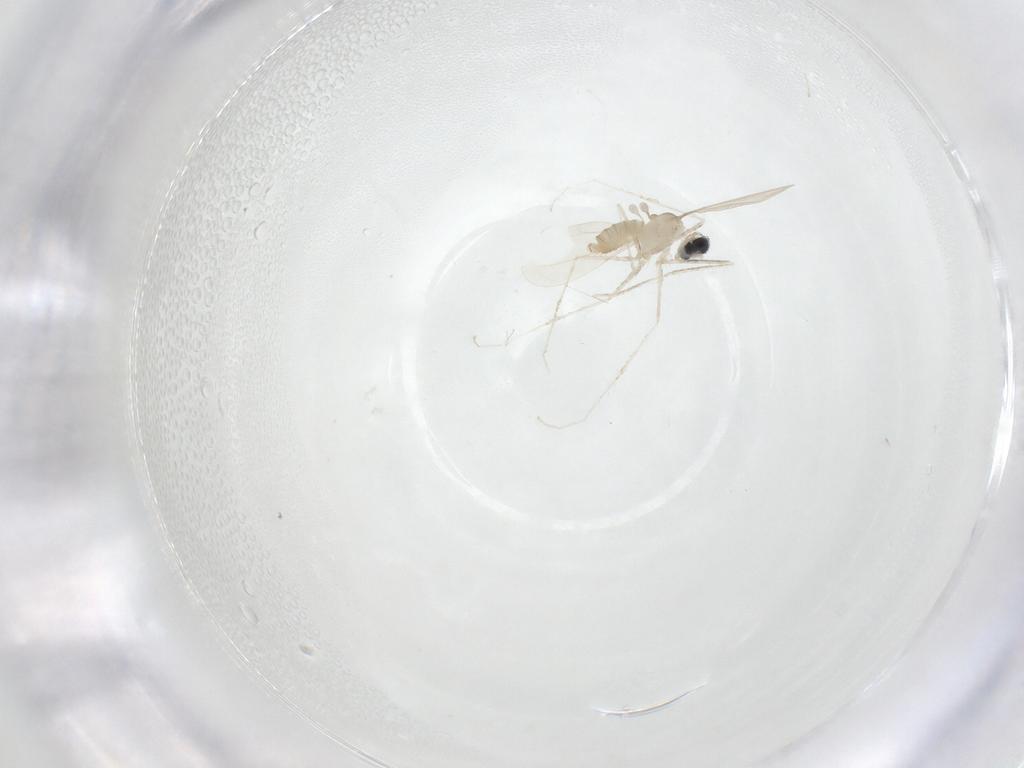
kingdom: Animalia
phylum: Arthropoda
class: Insecta
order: Diptera
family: Cecidomyiidae
